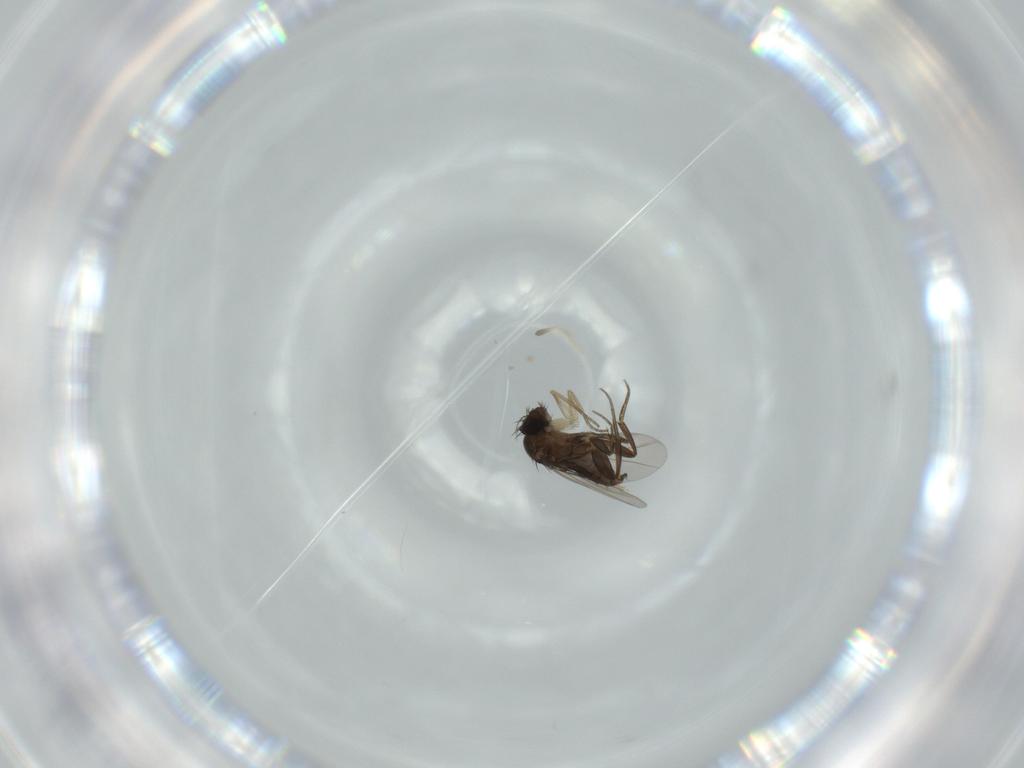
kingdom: Animalia
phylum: Arthropoda
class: Insecta
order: Diptera
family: Phoridae
